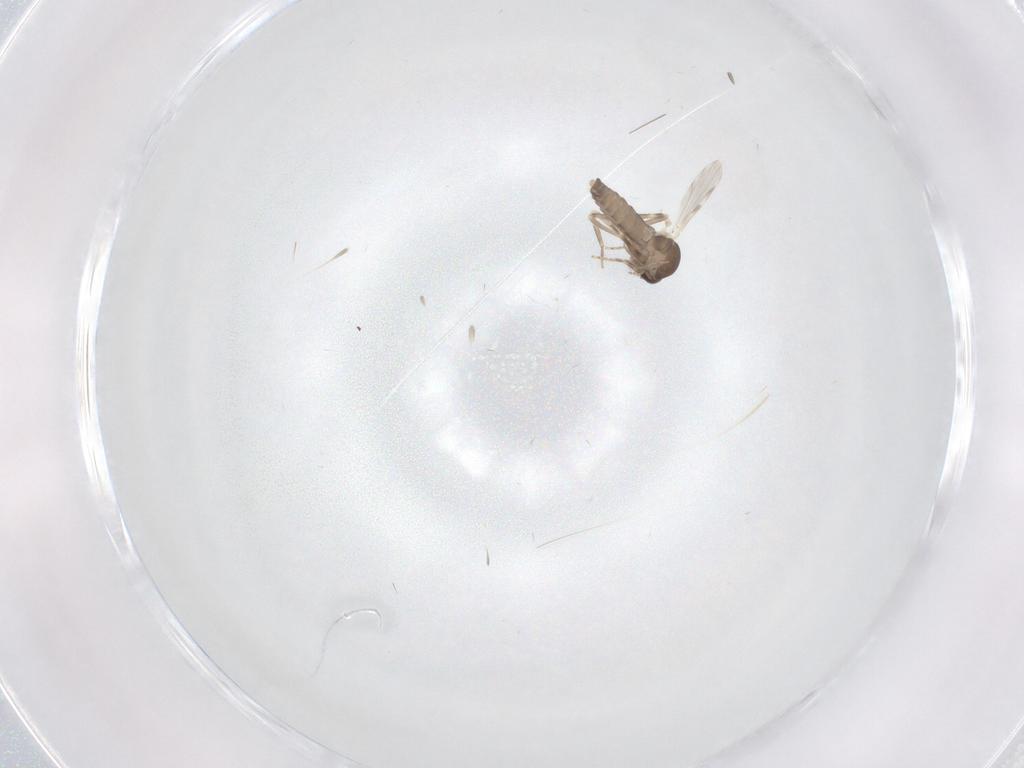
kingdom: Animalia
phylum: Arthropoda
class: Insecta
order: Diptera
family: Ceratopogonidae
